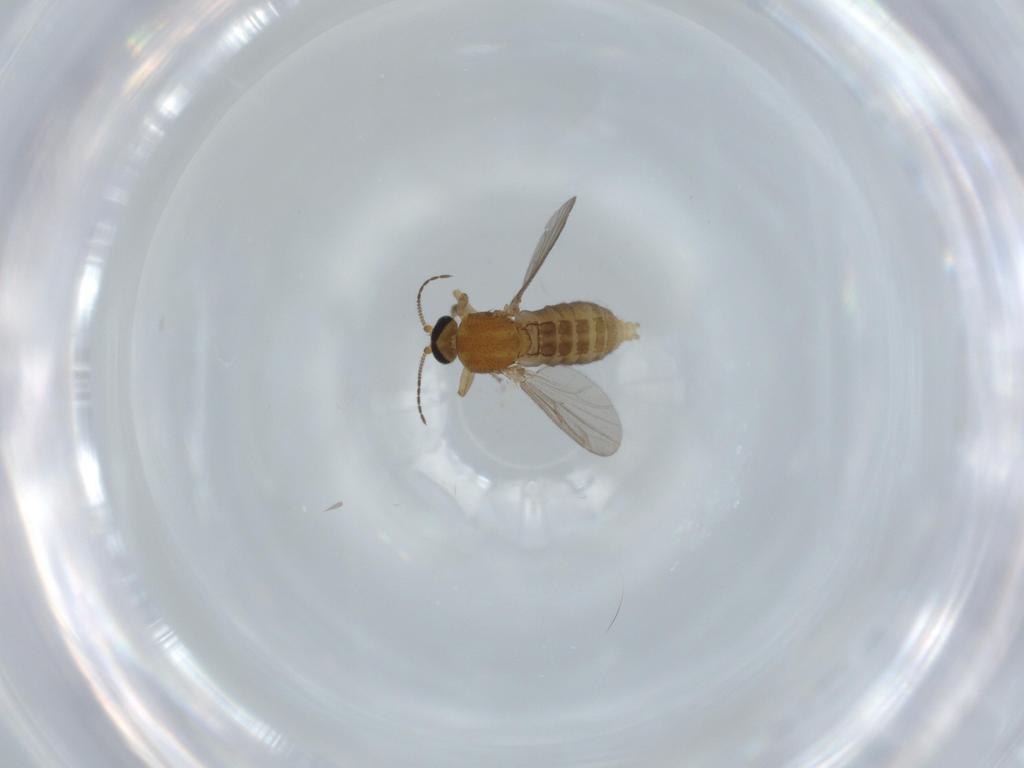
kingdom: Animalia
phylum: Arthropoda
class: Insecta
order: Diptera
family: Ceratopogonidae
